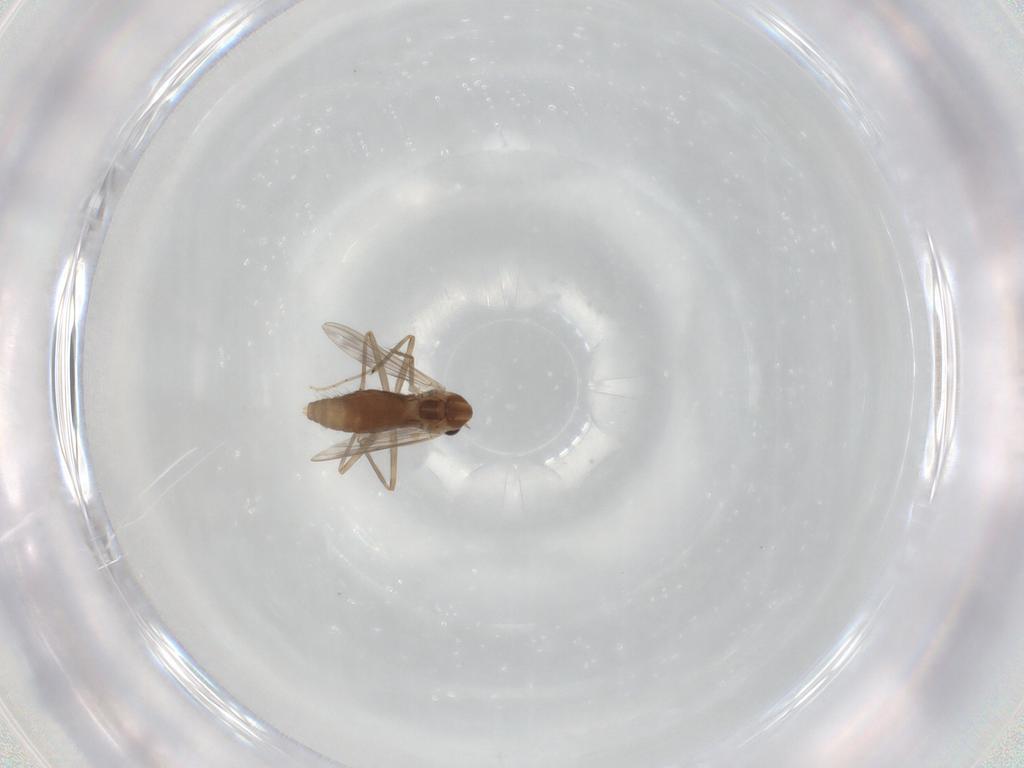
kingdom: Animalia
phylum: Arthropoda
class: Insecta
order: Diptera
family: Chironomidae
